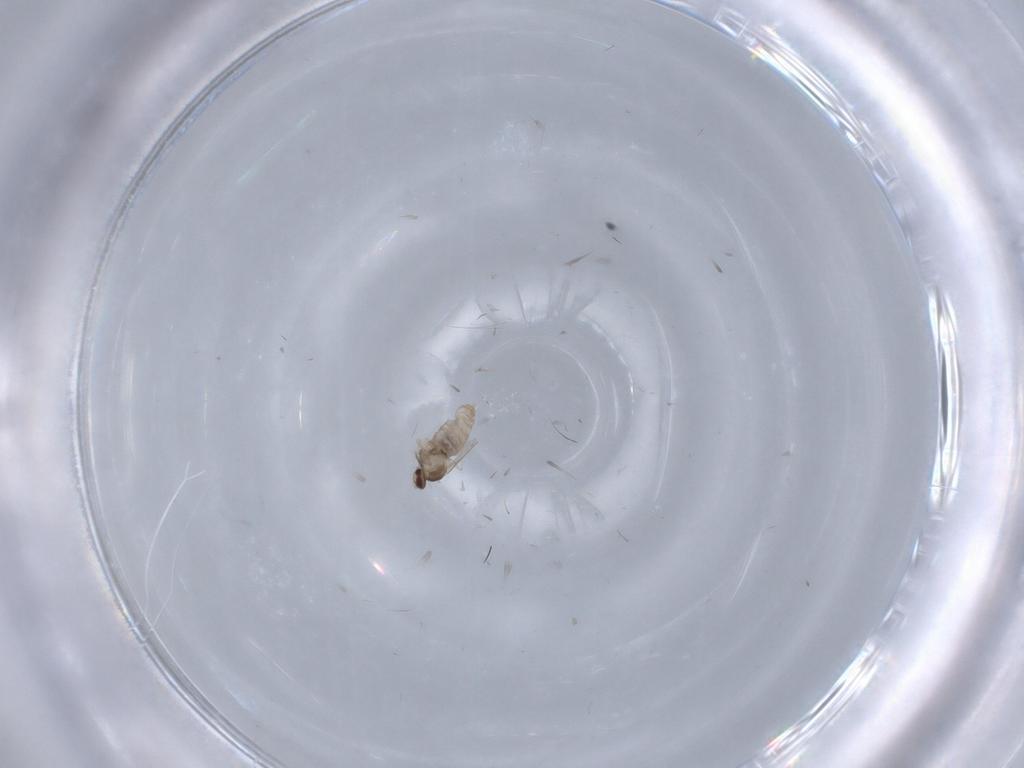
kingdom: Animalia
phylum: Arthropoda
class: Insecta
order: Diptera
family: Cecidomyiidae
